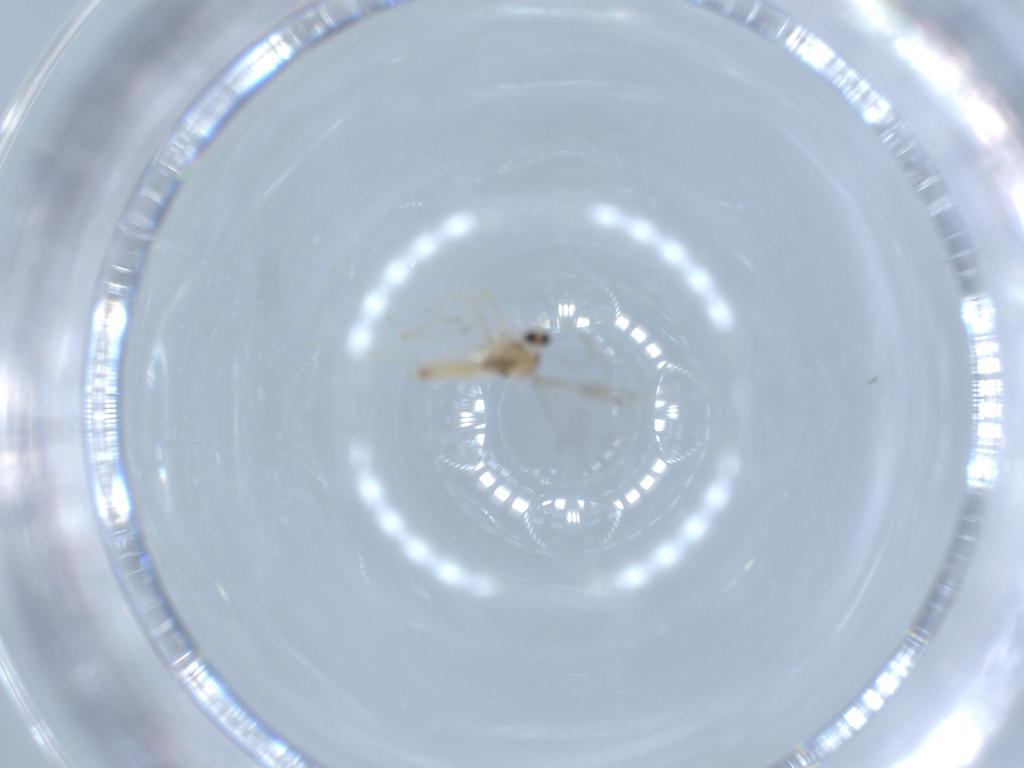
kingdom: Animalia
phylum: Arthropoda
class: Insecta
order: Diptera
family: Cecidomyiidae
